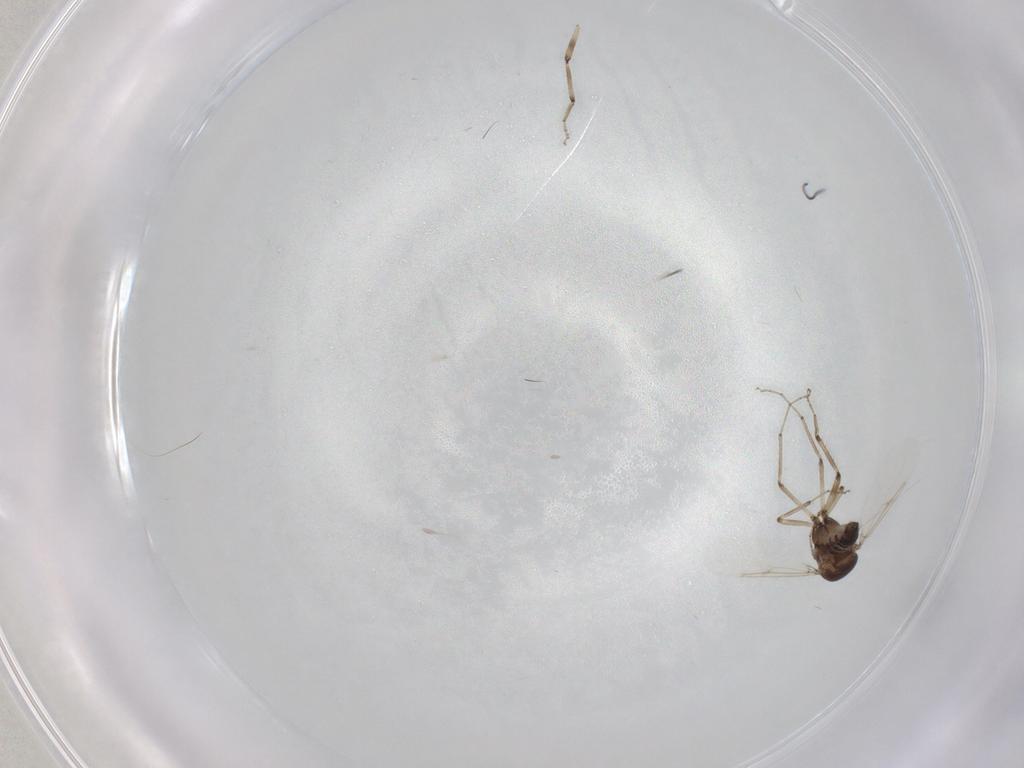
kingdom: Animalia
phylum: Arthropoda
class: Insecta
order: Diptera
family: Ceratopogonidae
